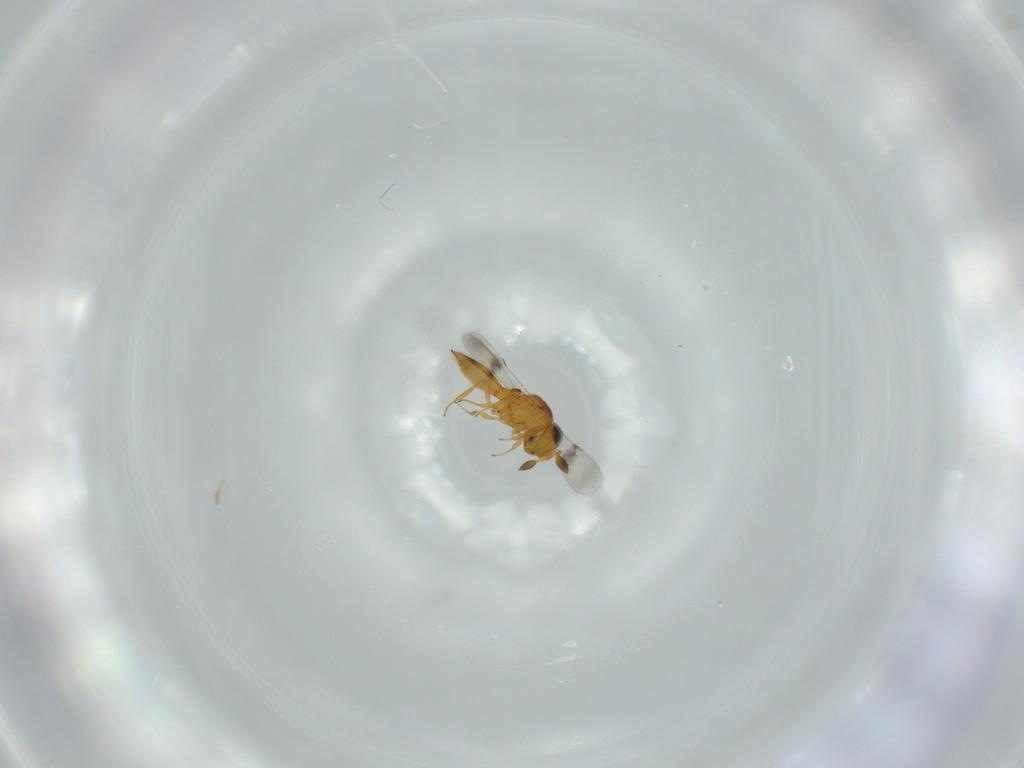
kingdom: Animalia
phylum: Arthropoda
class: Insecta
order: Hymenoptera
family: Scelionidae
